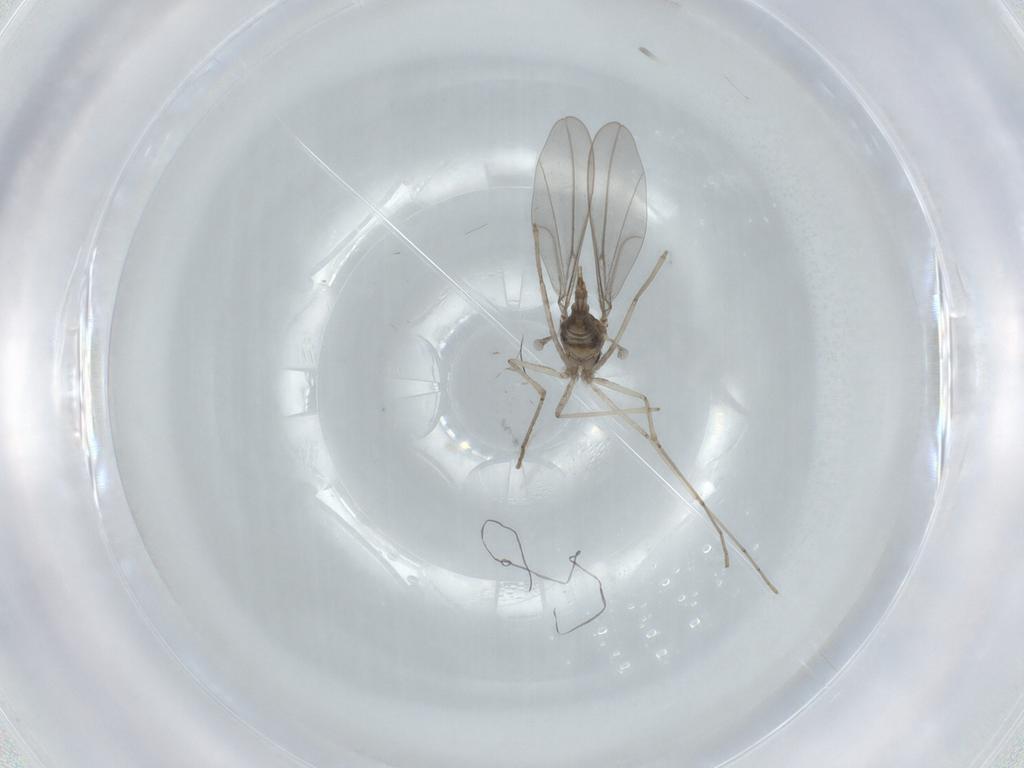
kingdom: Animalia
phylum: Arthropoda
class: Insecta
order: Diptera
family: Cecidomyiidae
